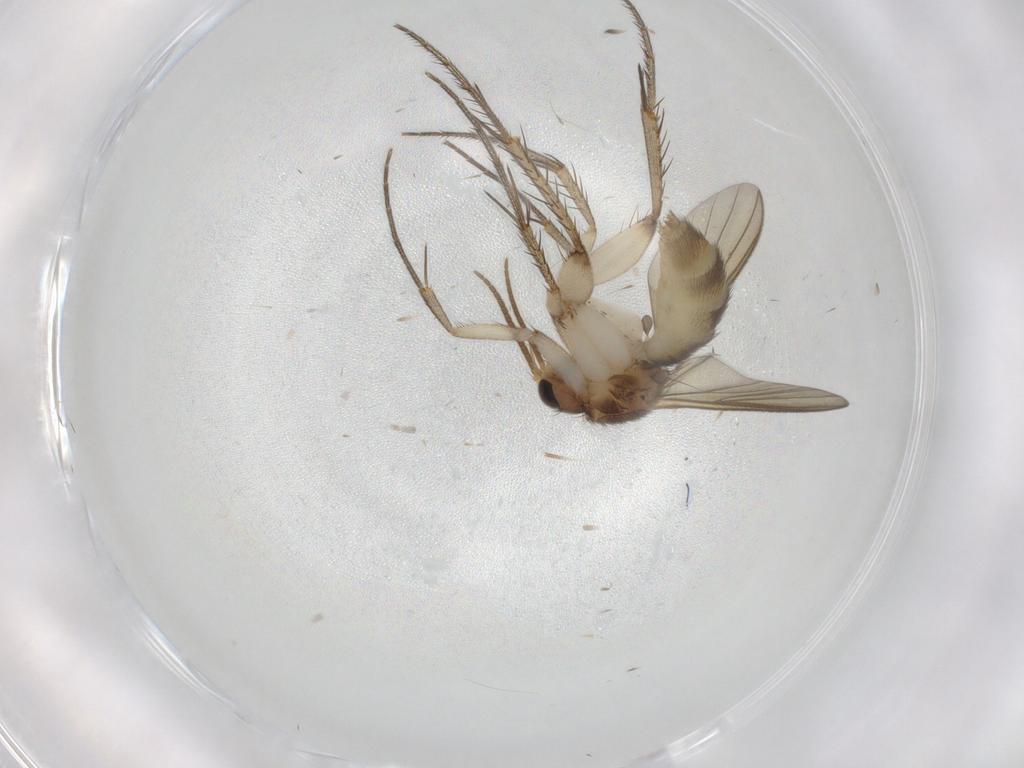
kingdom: Animalia
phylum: Arthropoda
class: Insecta
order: Diptera
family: Mycetophilidae
